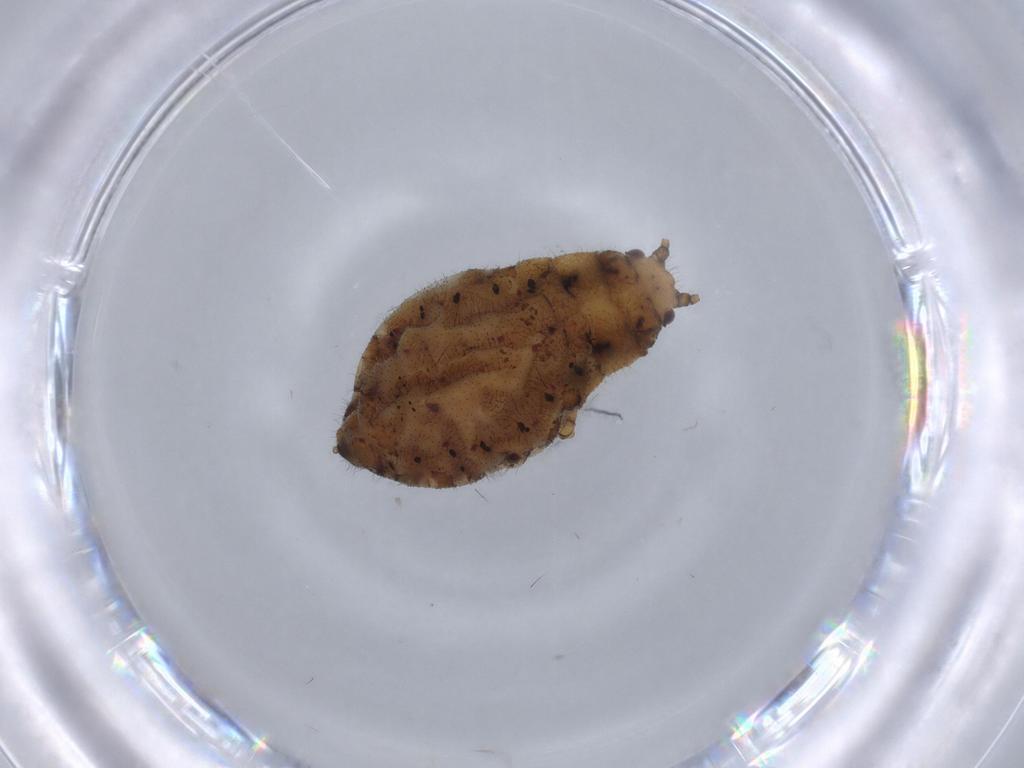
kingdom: Animalia
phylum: Arthropoda
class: Insecta
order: Hemiptera
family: Aphididae
